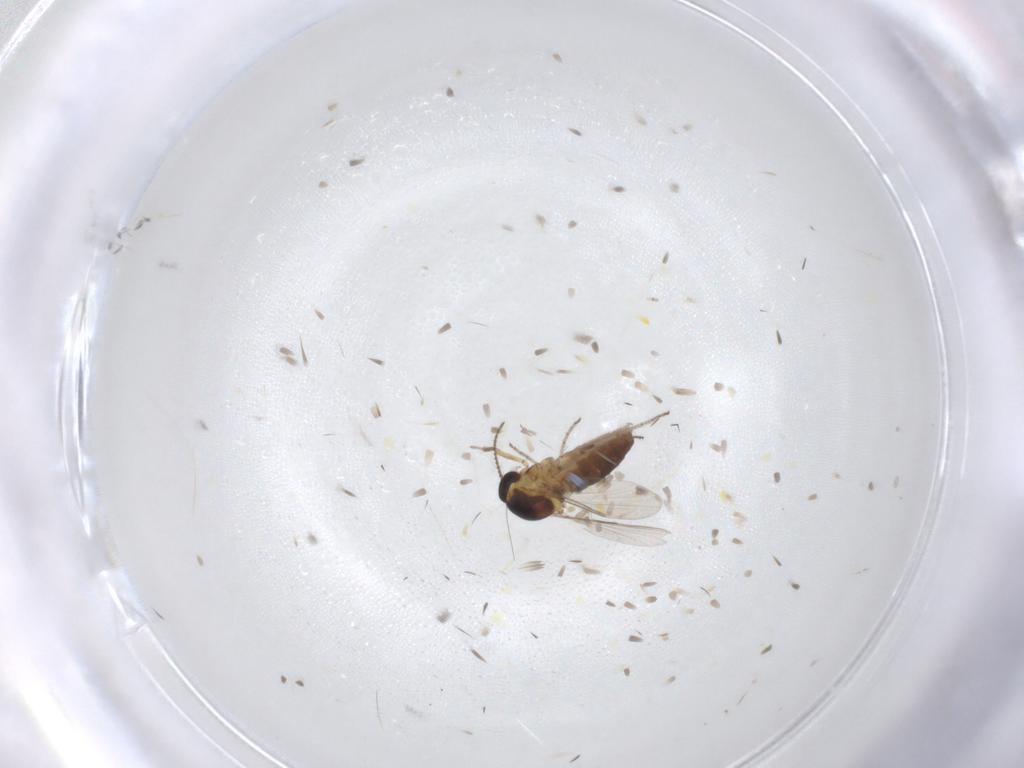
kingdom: Animalia
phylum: Arthropoda
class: Insecta
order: Diptera
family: Ceratopogonidae
